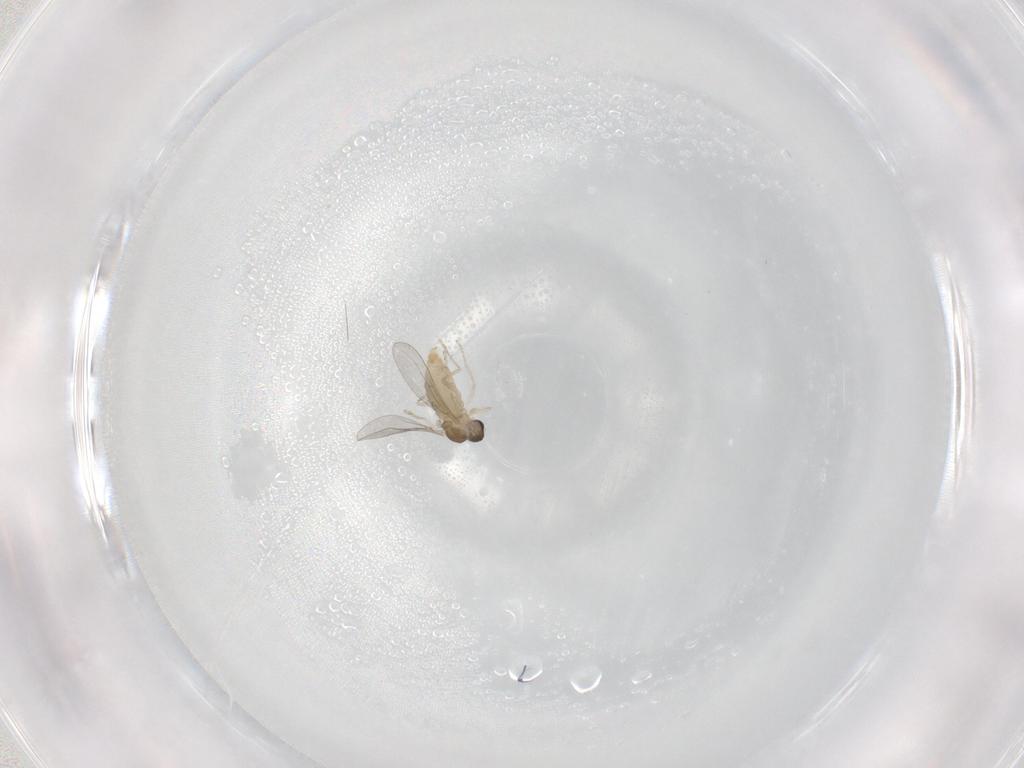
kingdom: Animalia
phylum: Arthropoda
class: Insecta
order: Diptera
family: Cecidomyiidae
